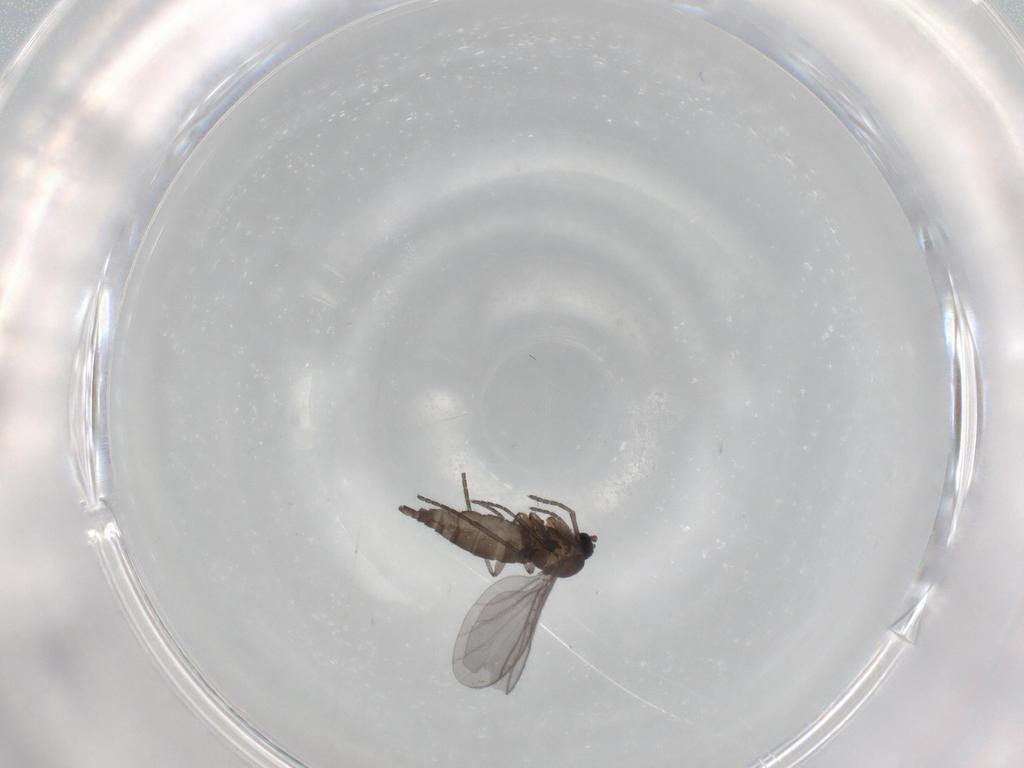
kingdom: Animalia
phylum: Arthropoda
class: Insecta
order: Diptera
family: Sciaridae
